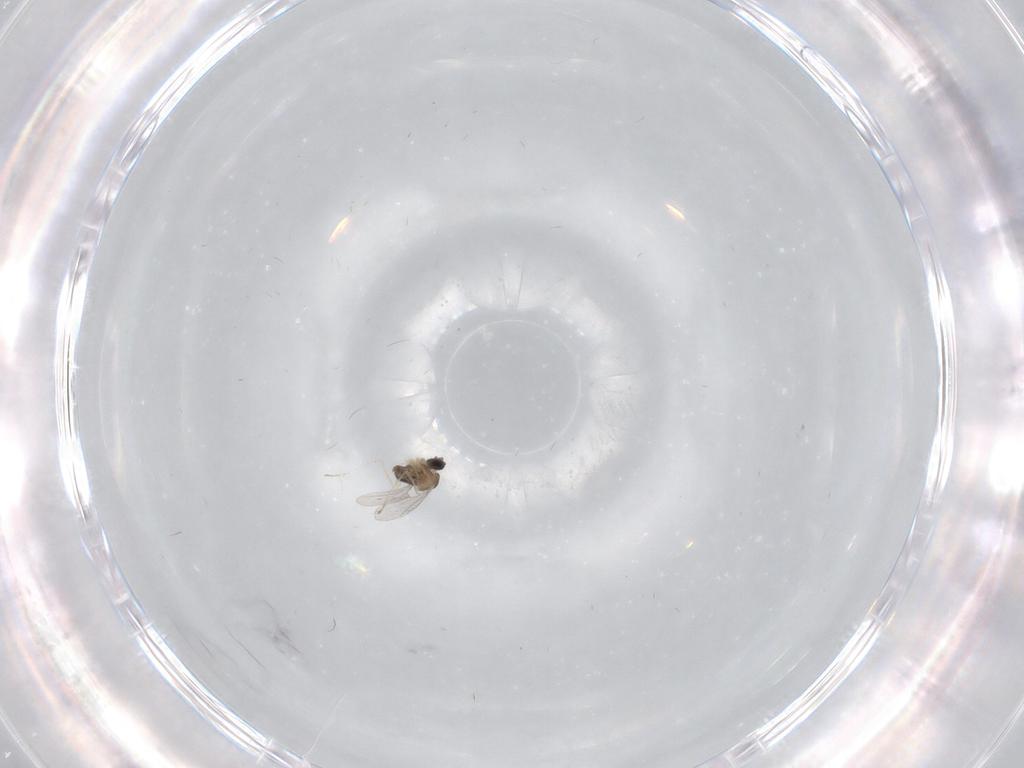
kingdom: Animalia
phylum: Arthropoda
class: Insecta
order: Diptera
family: Cecidomyiidae
